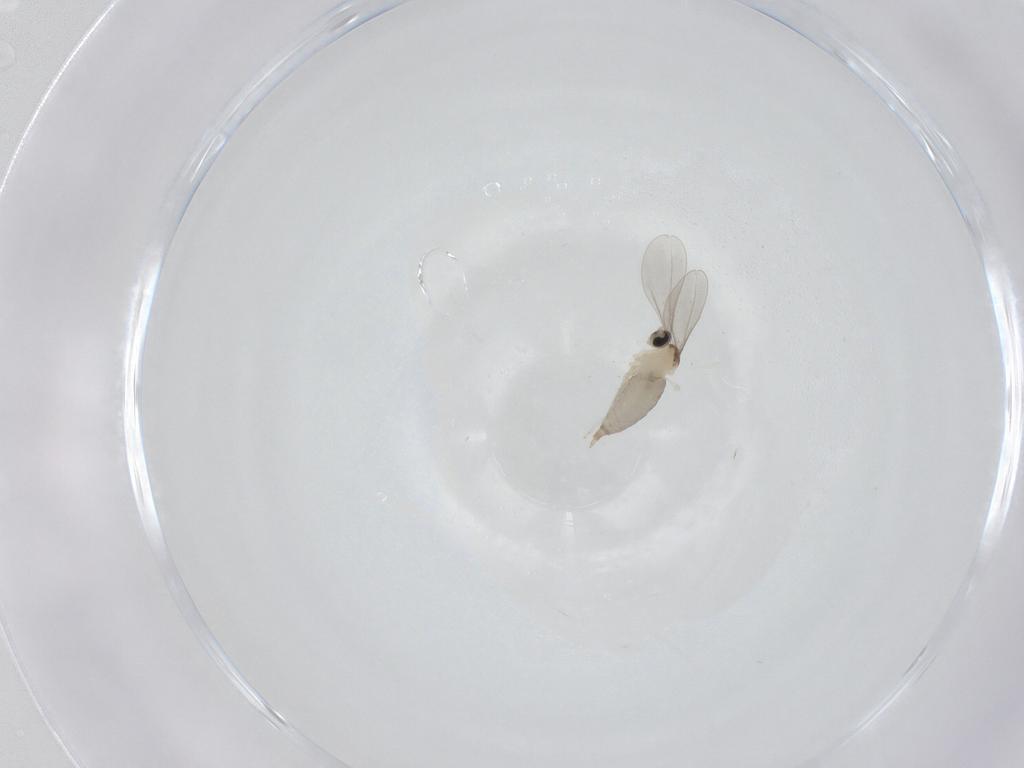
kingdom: Animalia
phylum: Arthropoda
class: Insecta
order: Diptera
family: Cecidomyiidae
